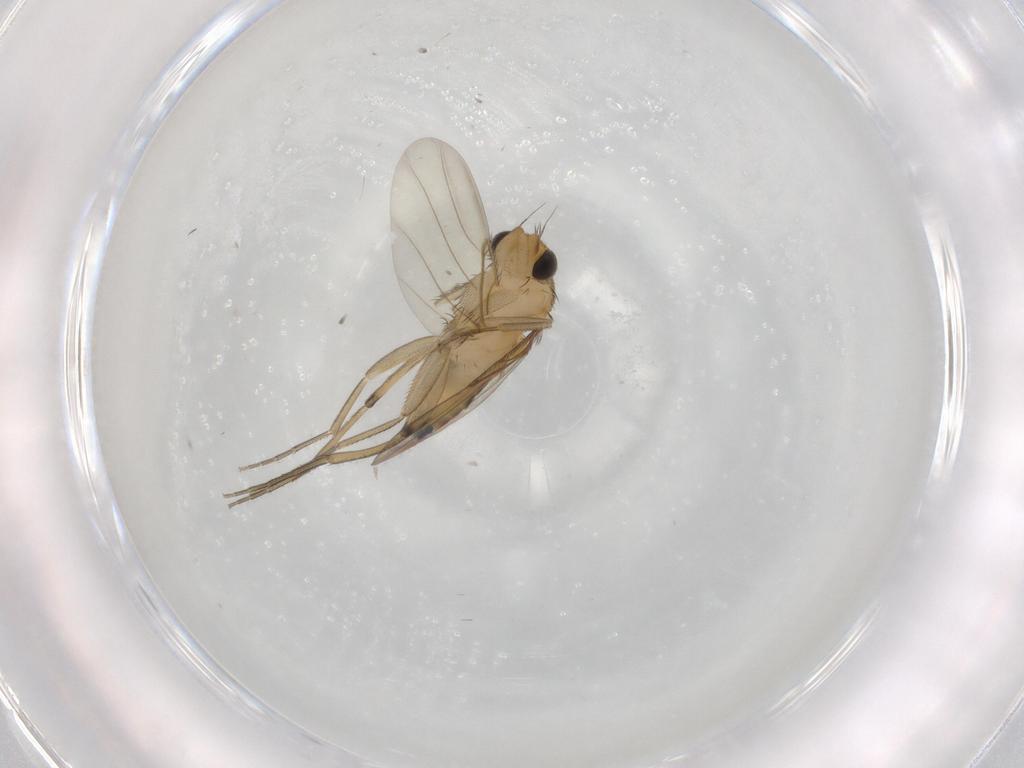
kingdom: Animalia
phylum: Arthropoda
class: Insecta
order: Diptera
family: Phoridae
